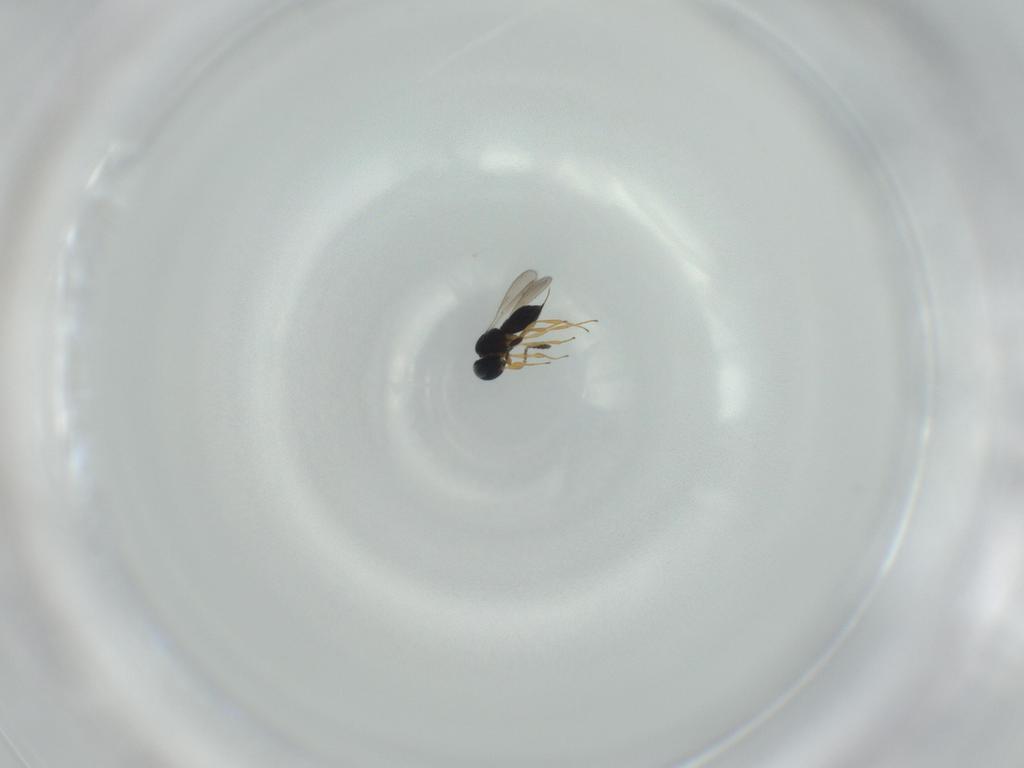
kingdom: Animalia
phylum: Arthropoda
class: Insecta
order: Hymenoptera
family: Scelionidae
